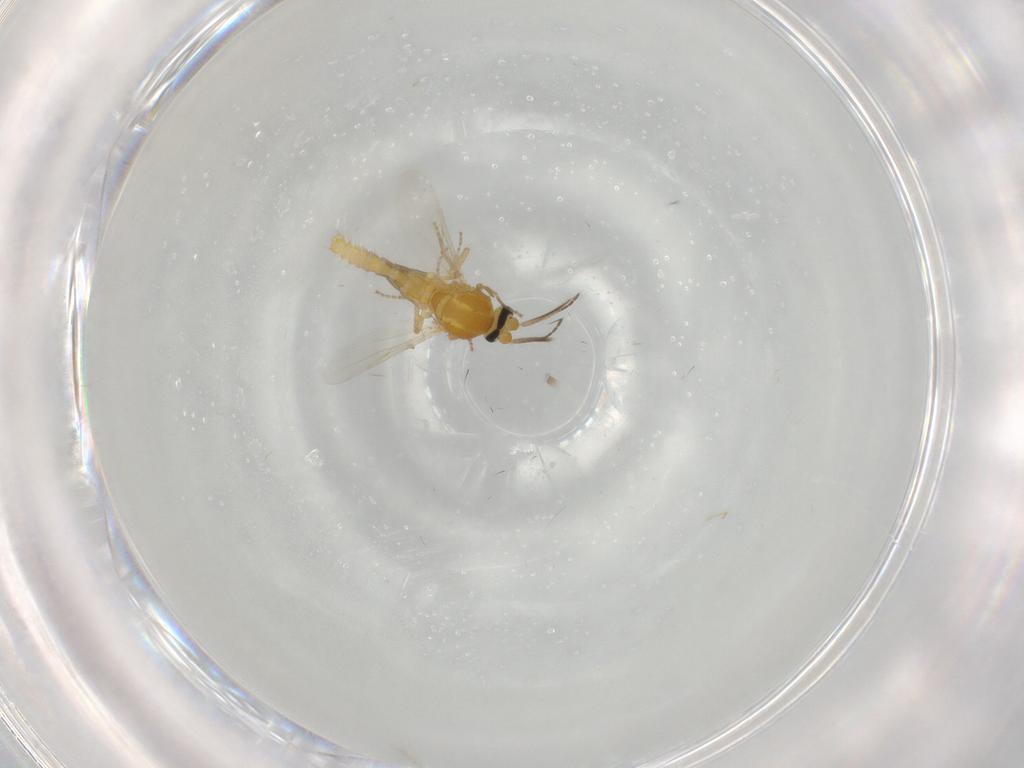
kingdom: Animalia
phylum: Arthropoda
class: Insecta
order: Diptera
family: Ceratopogonidae
